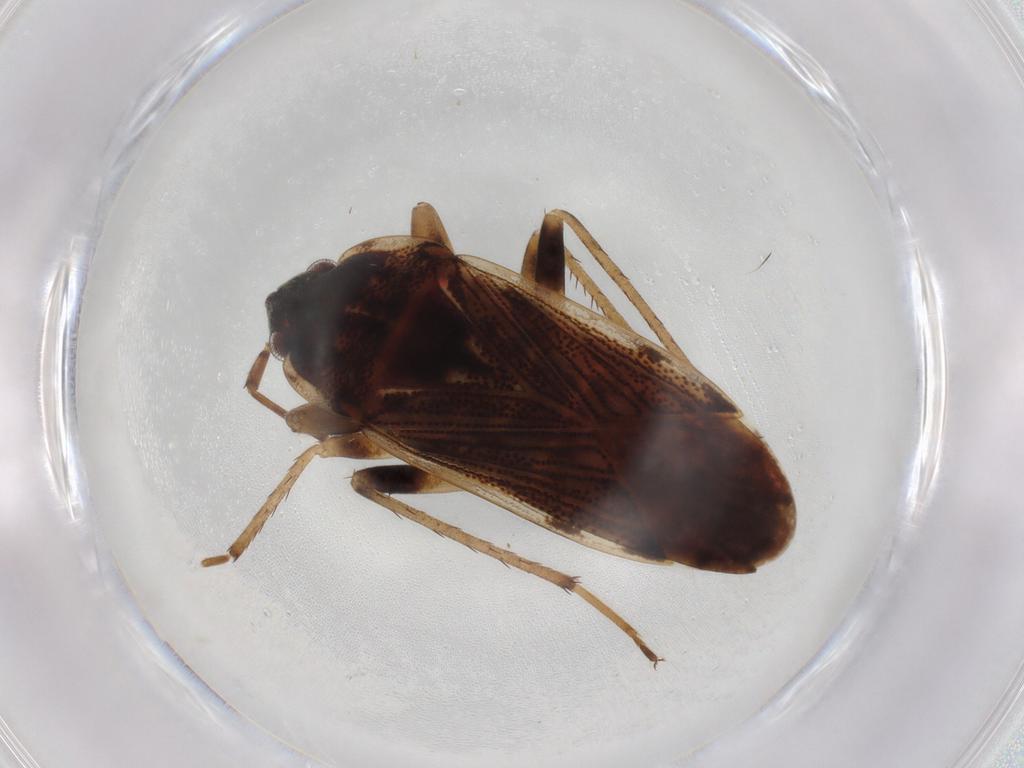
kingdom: Animalia
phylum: Arthropoda
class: Insecta
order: Hemiptera
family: Rhyparochromidae
